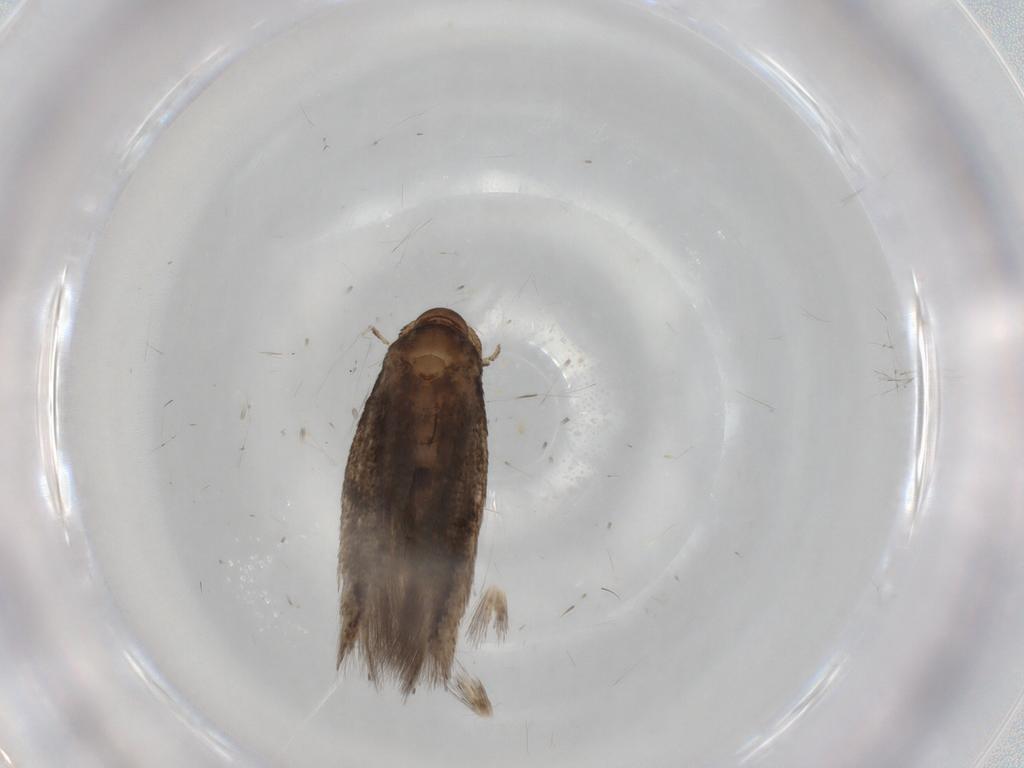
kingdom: Animalia
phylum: Arthropoda
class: Insecta
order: Lepidoptera
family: Elachistidae
